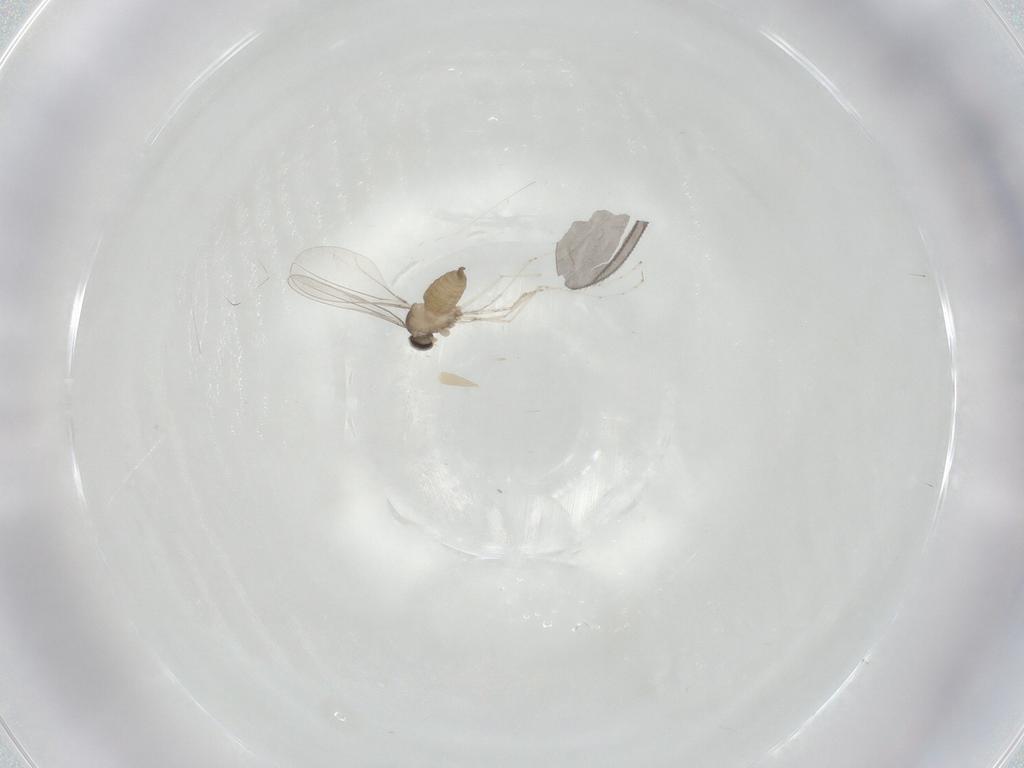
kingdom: Animalia
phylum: Arthropoda
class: Insecta
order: Diptera
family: Cecidomyiidae
